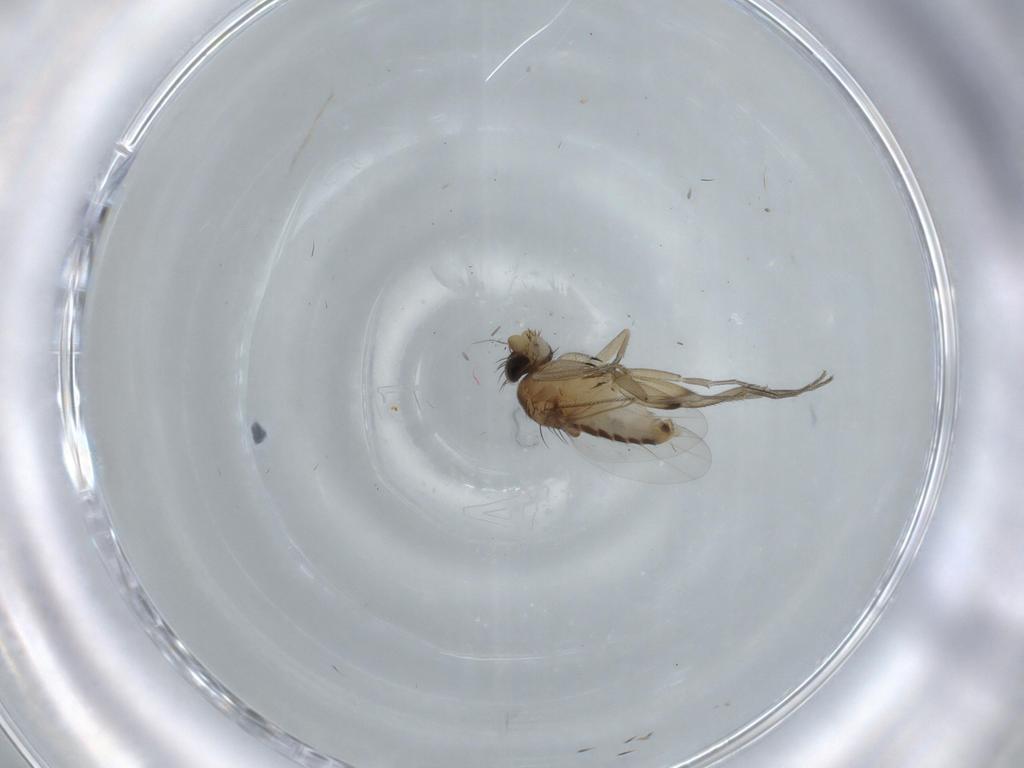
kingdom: Animalia
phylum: Arthropoda
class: Insecta
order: Diptera
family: Phoridae
